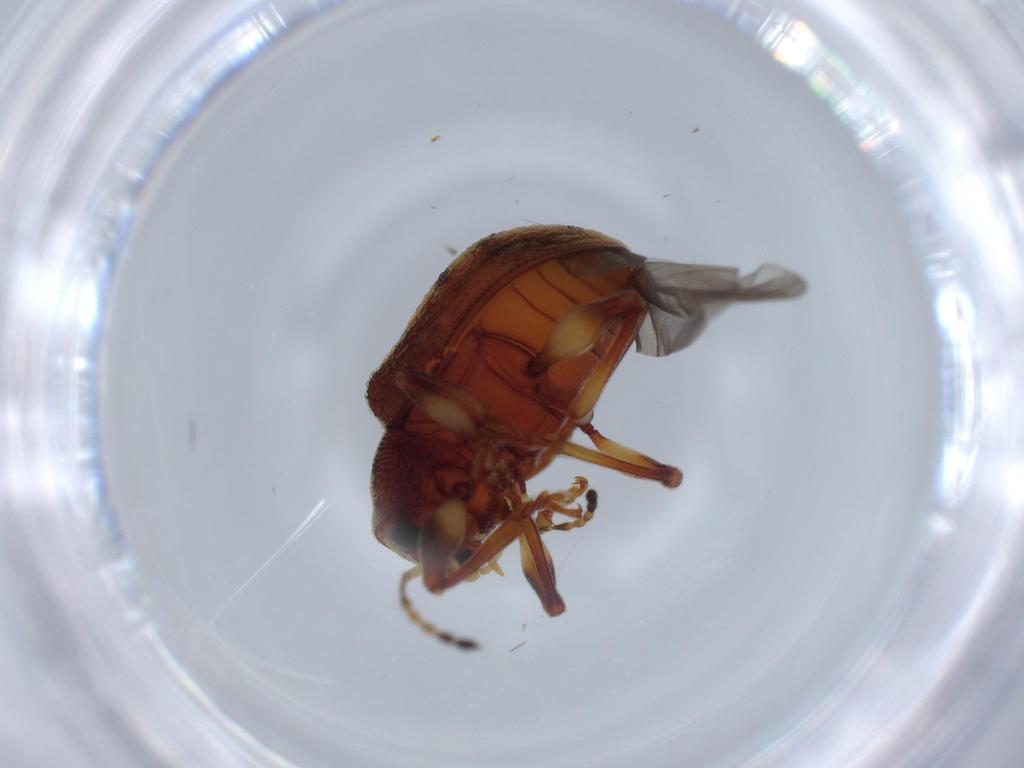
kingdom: Animalia
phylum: Arthropoda
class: Insecta
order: Coleoptera
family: Chrysomelidae
